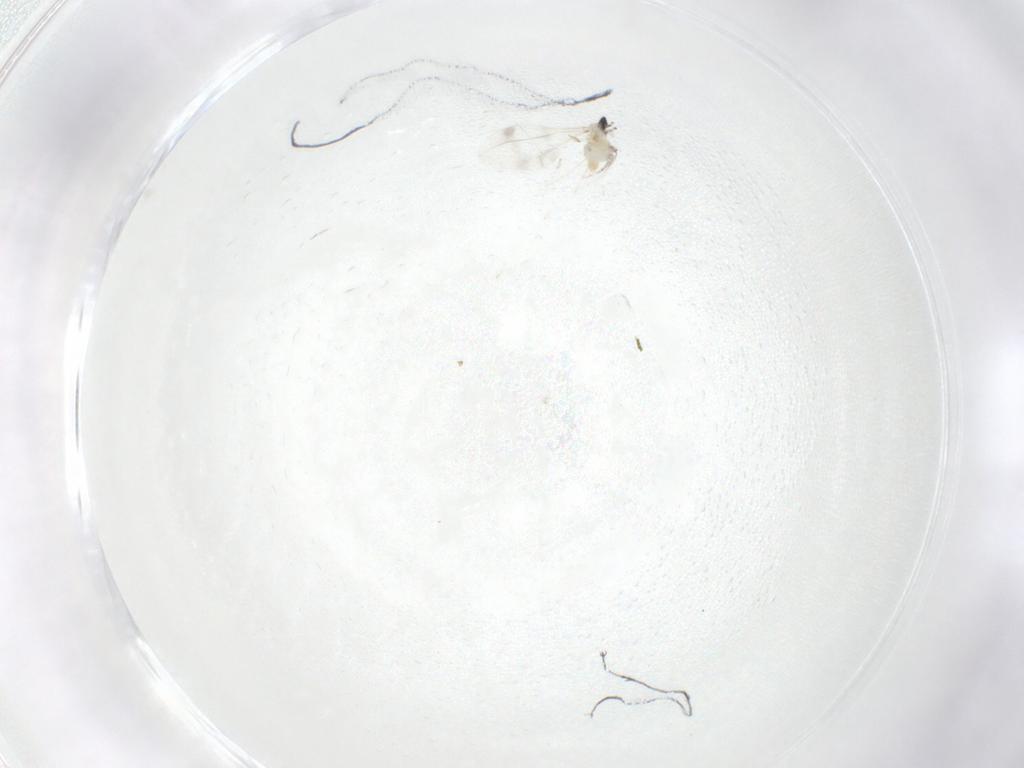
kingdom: Animalia
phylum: Arthropoda
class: Insecta
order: Diptera
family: Cecidomyiidae
